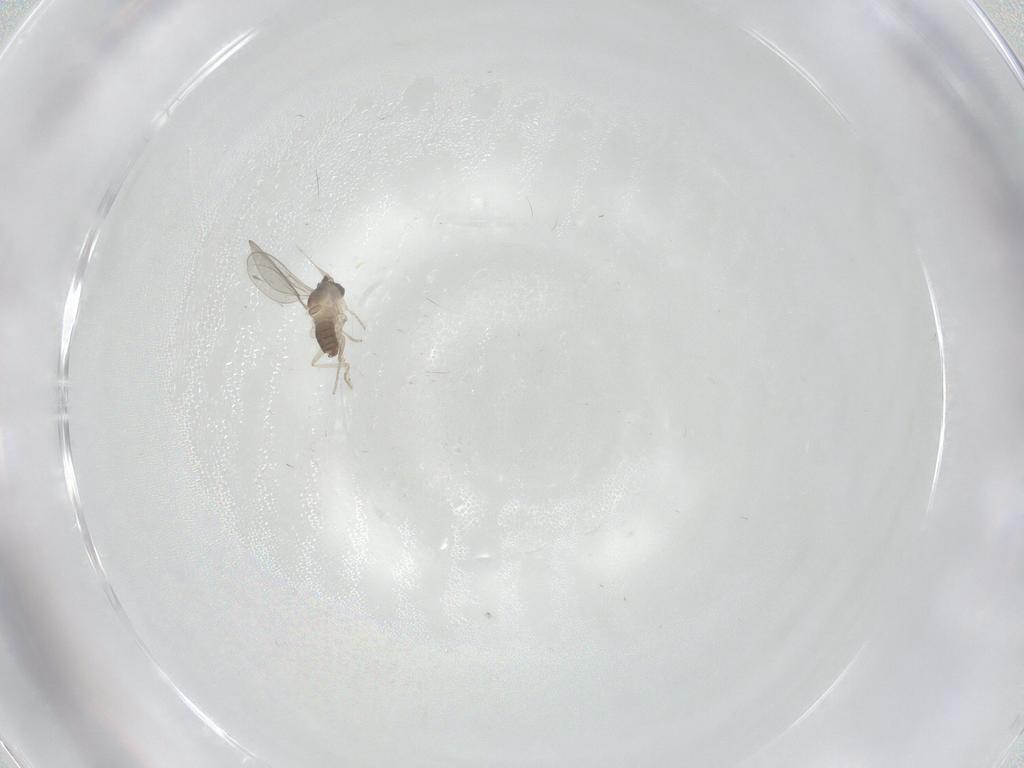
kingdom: Animalia
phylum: Arthropoda
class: Insecta
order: Diptera
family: Cecidomyiidae
